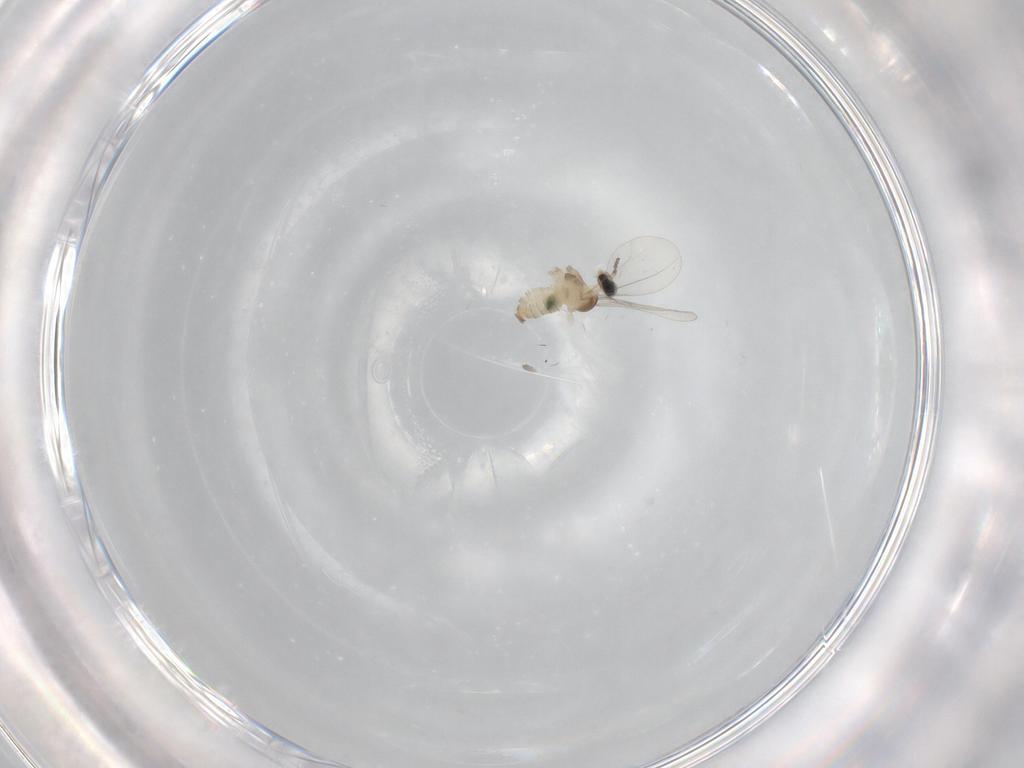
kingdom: Animalia
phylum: Arthropoda
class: Insecta
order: Diptera
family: Cecidomyiidae
